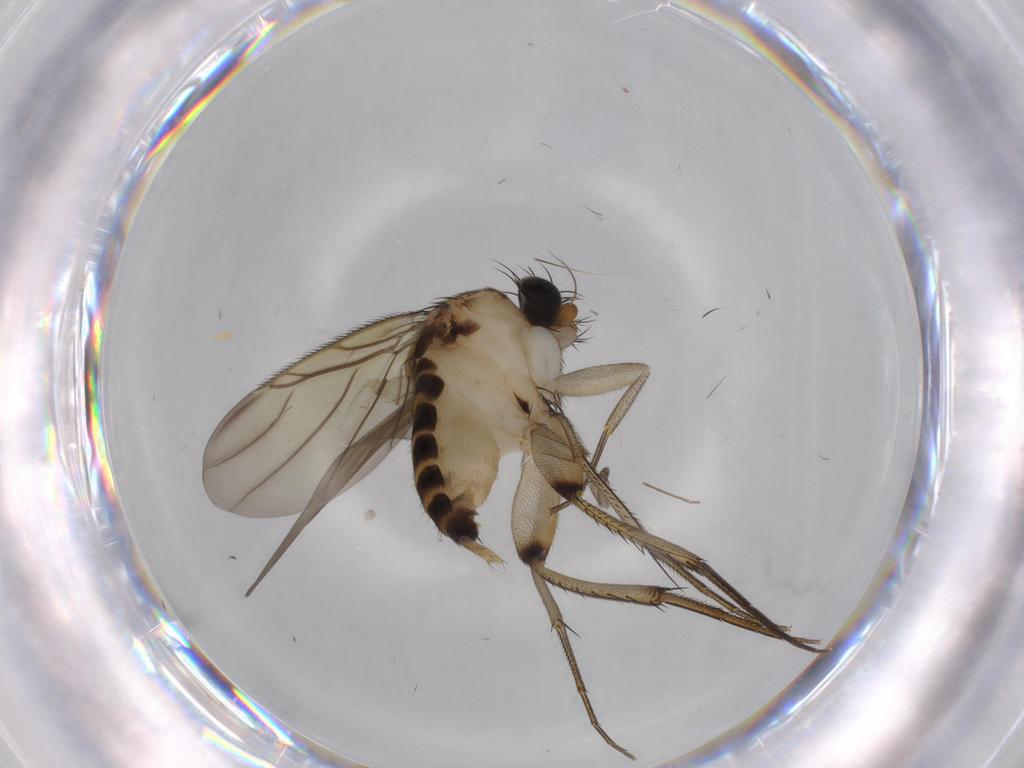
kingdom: Animalia
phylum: Arthropoda
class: Insecta
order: Diptera
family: Phoridae
